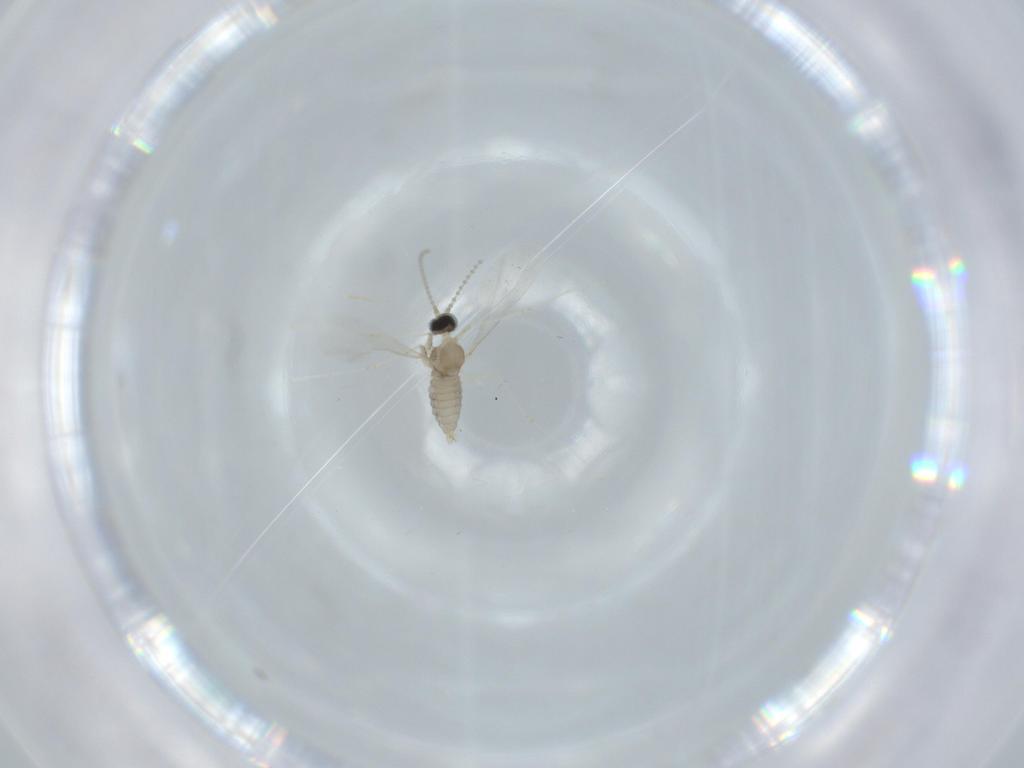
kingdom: Animalia
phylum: Arthropoda
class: Insecta
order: Diptera
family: Cecidomyiidae
